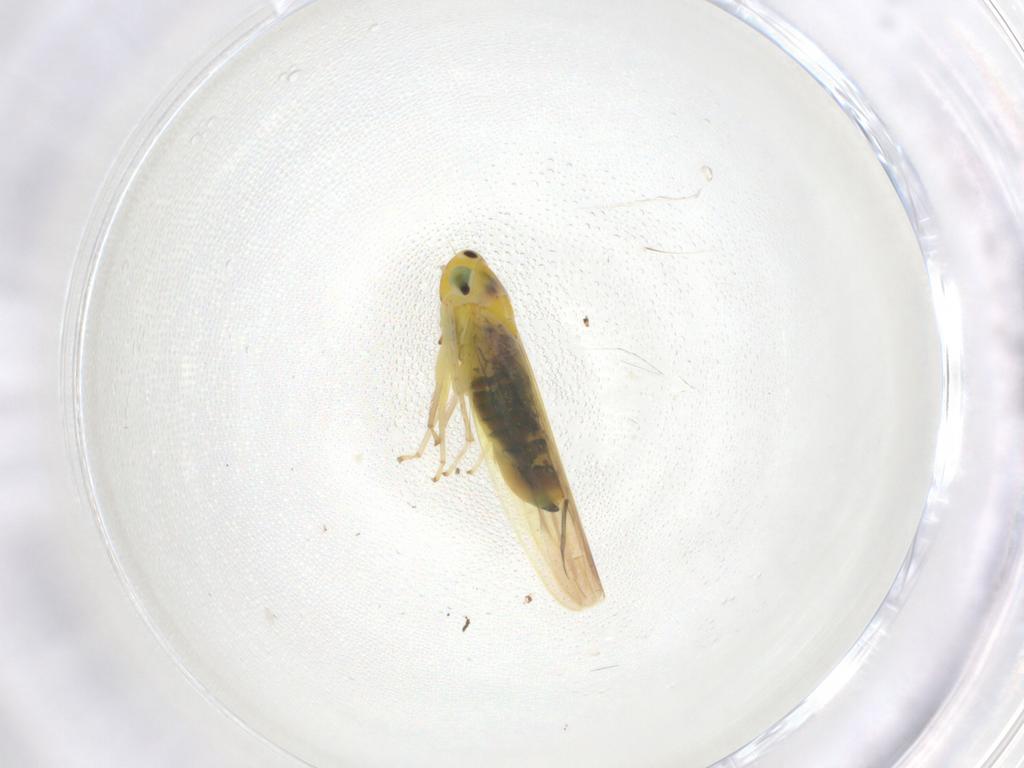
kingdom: Animalia
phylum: Arthropoda
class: Insecta
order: Hemiptera
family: Cicadellidae
